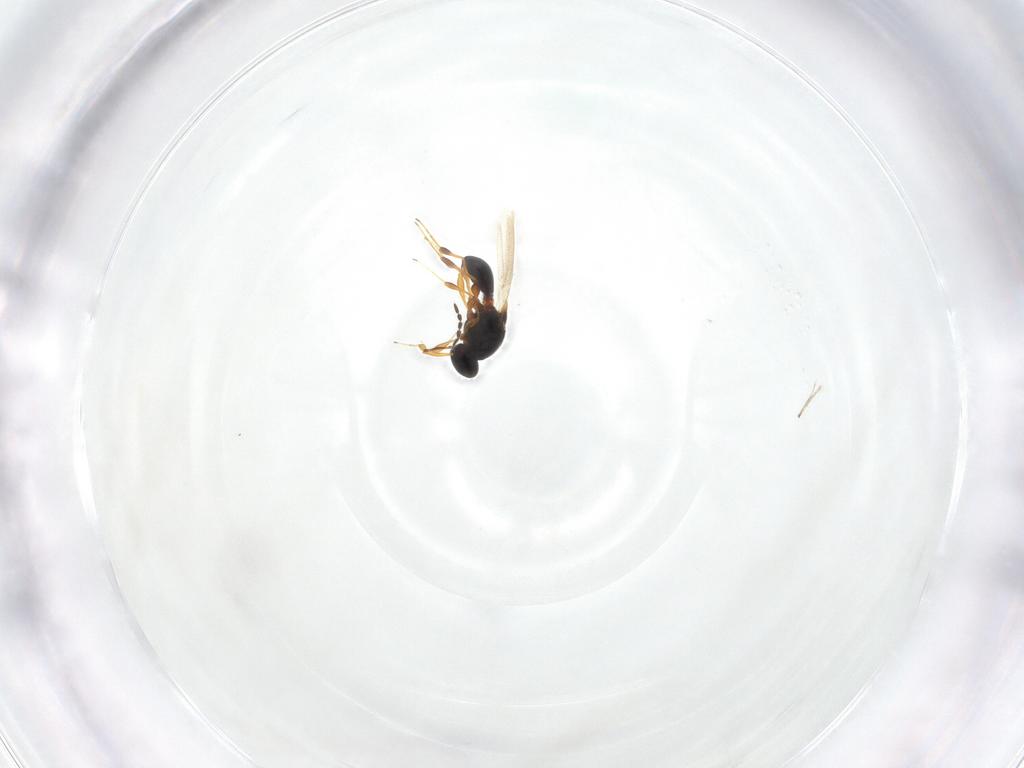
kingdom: Animalia
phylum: Arthropoda
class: Insecta
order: Hymenoptera
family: Platygastridae
